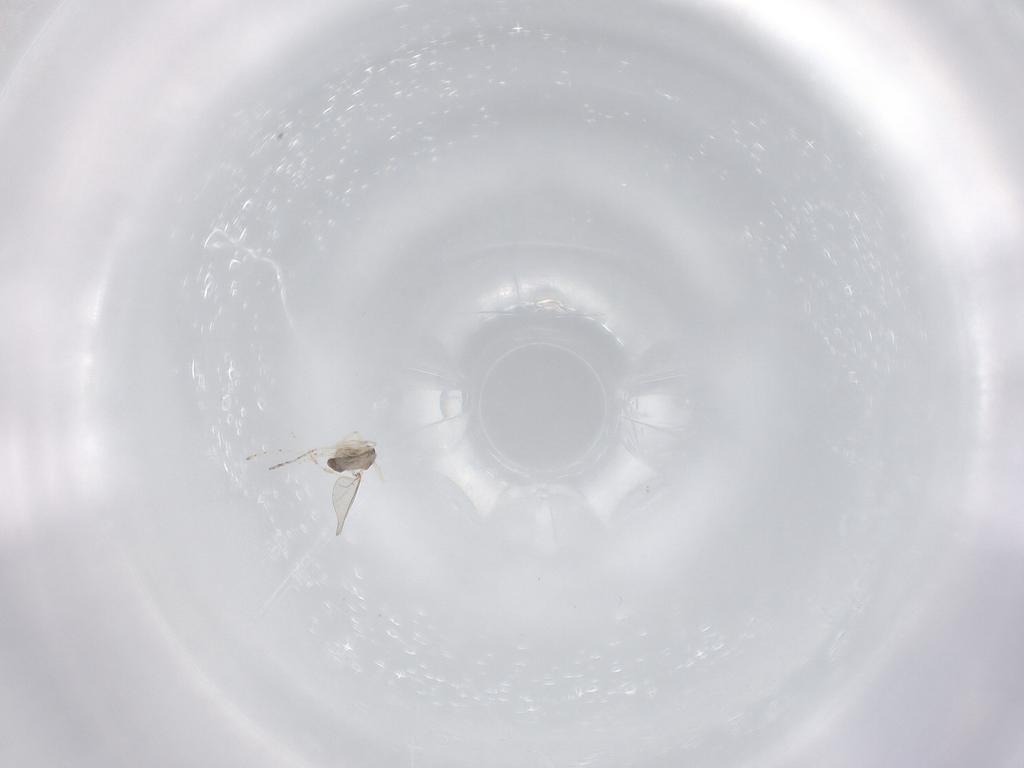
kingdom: Animalia
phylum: Arthropoda
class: Insecta
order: Diptera
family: Cecidomyiidae
